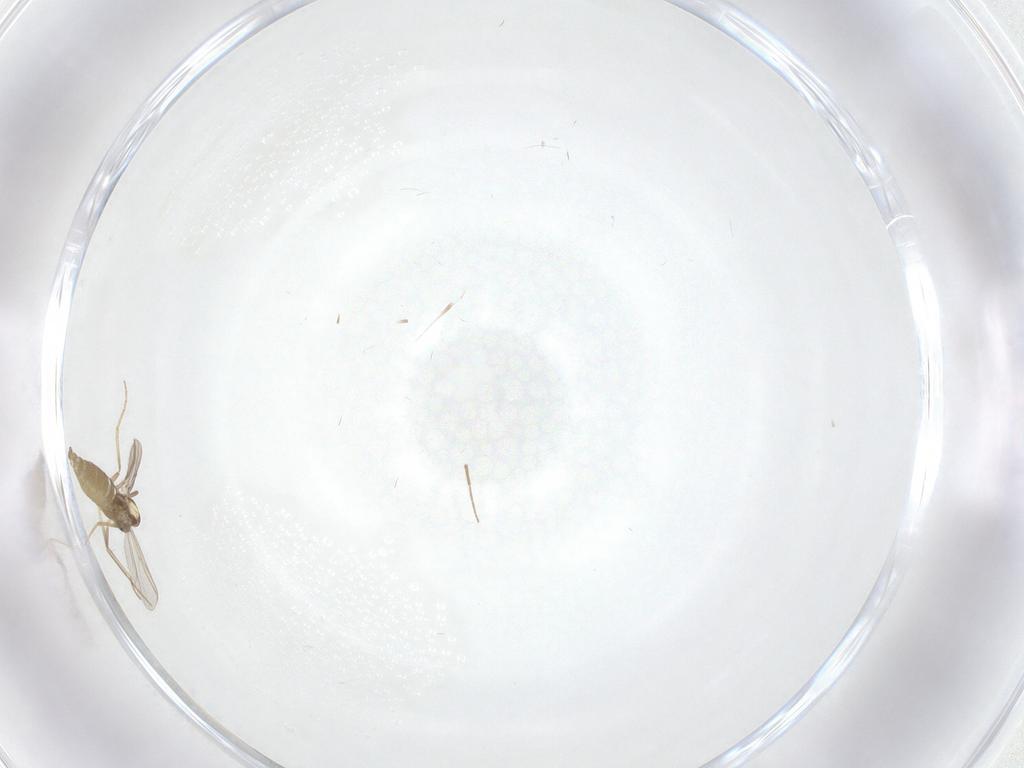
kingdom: Animalia
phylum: Arthropoda
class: Insecta
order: Diptera
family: Chironomidae
